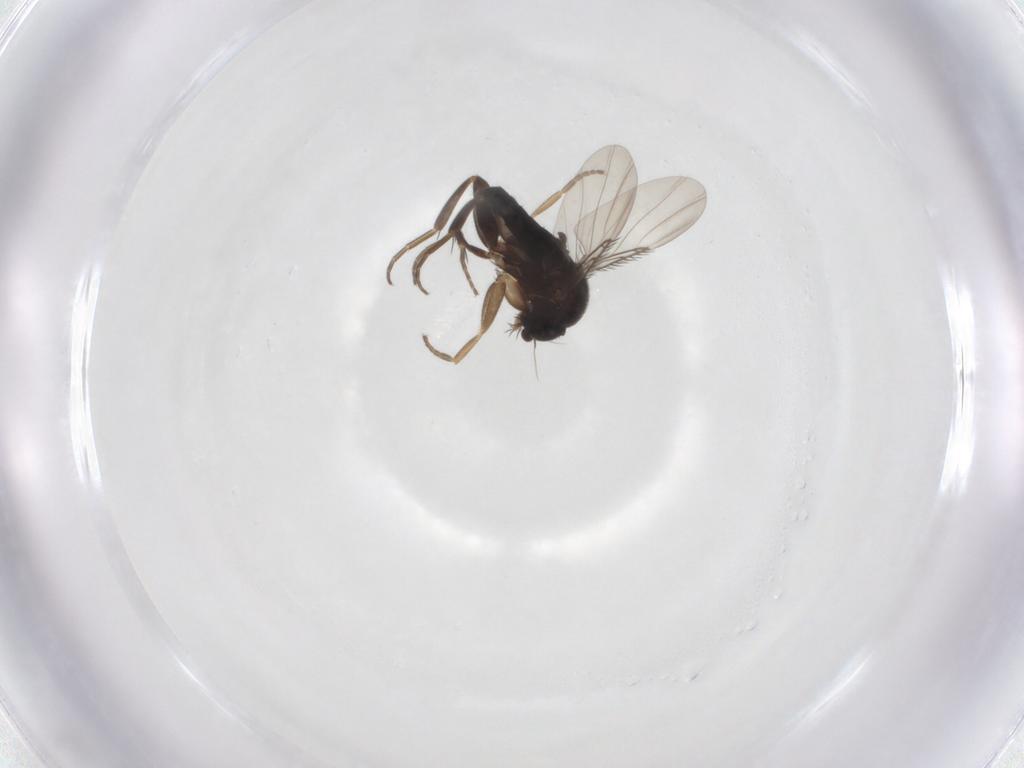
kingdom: Animalia
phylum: Arthropoda
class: Insecta
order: Diptera
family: Phoridae
